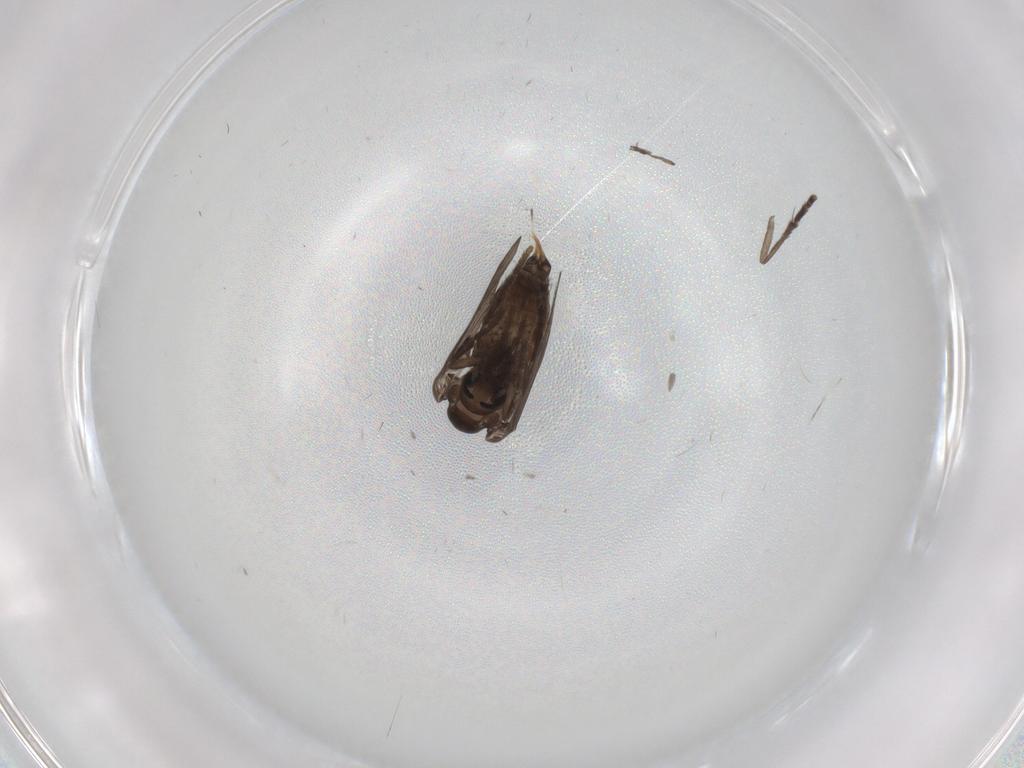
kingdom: Animalia
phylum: Arthropoda
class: Insecta
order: Diptera
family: Psychodidae
